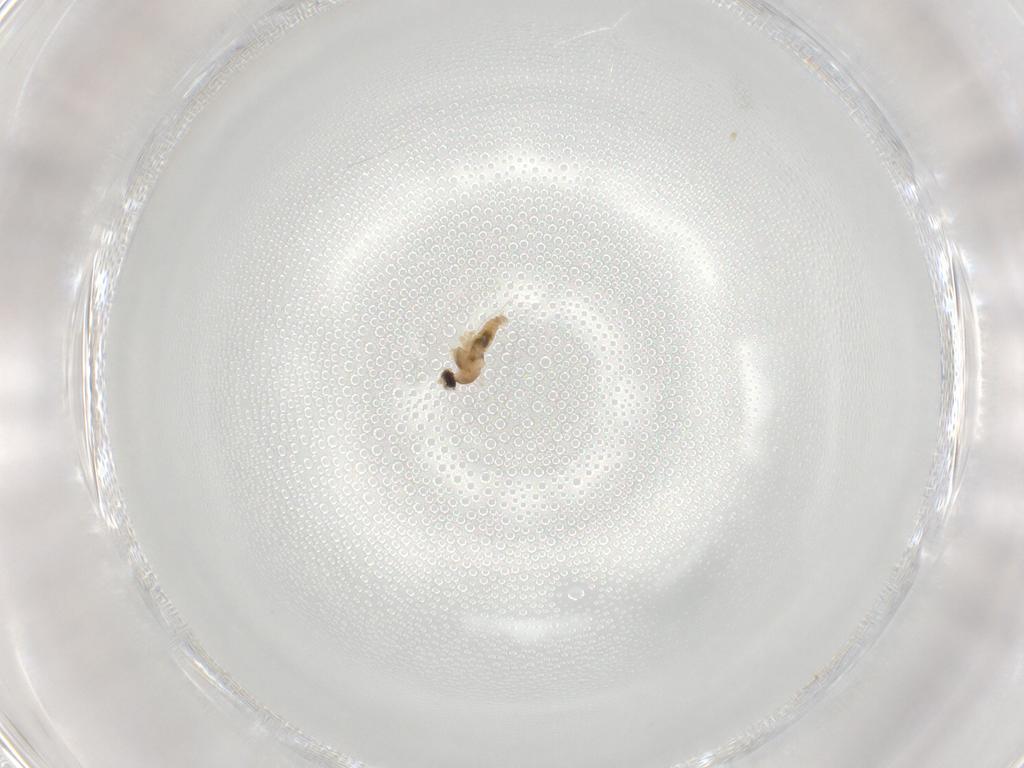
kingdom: Animalia
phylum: Arthropoda
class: Insecta
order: Diptera
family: Cecidomyiidae
